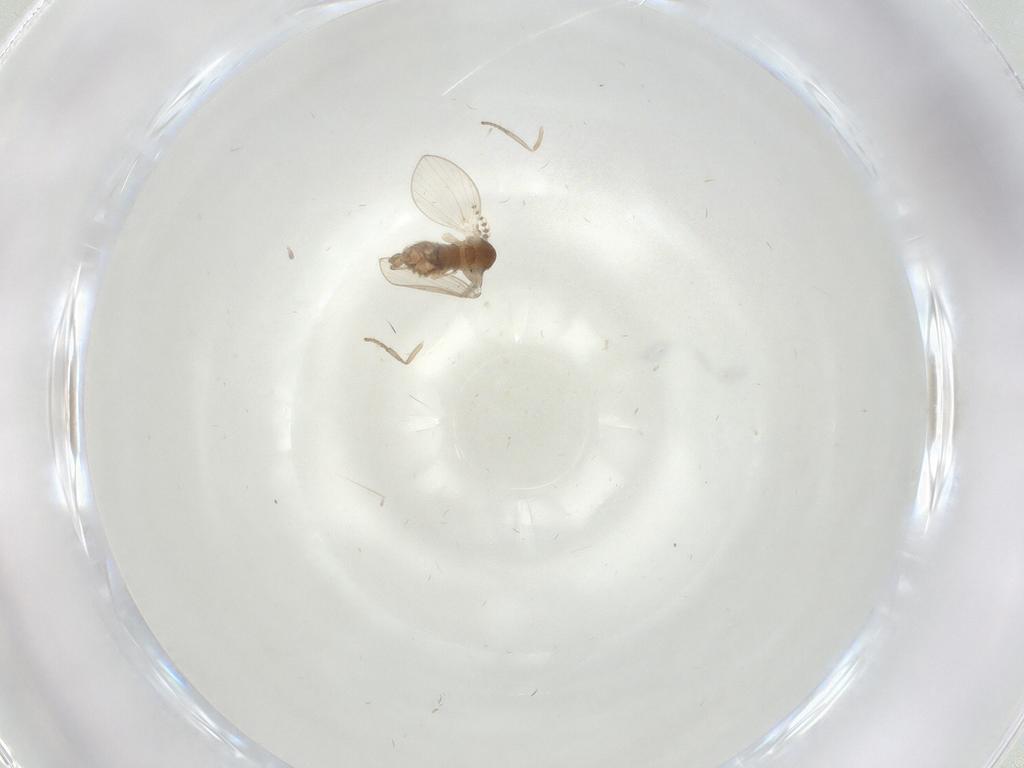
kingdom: Animalia
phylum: Arthropoda
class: Insecta
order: Diptera
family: Psychodidae
